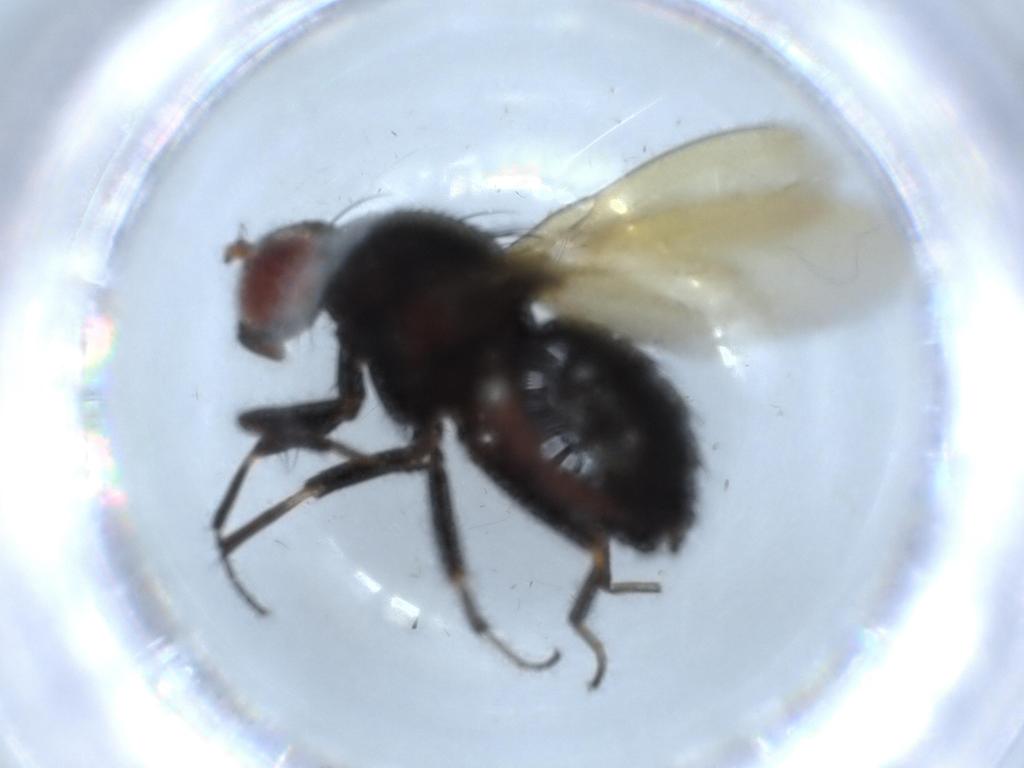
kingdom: Animalia
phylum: Arthropoda
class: Insecta
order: Diptera
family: Lauxaniidae
